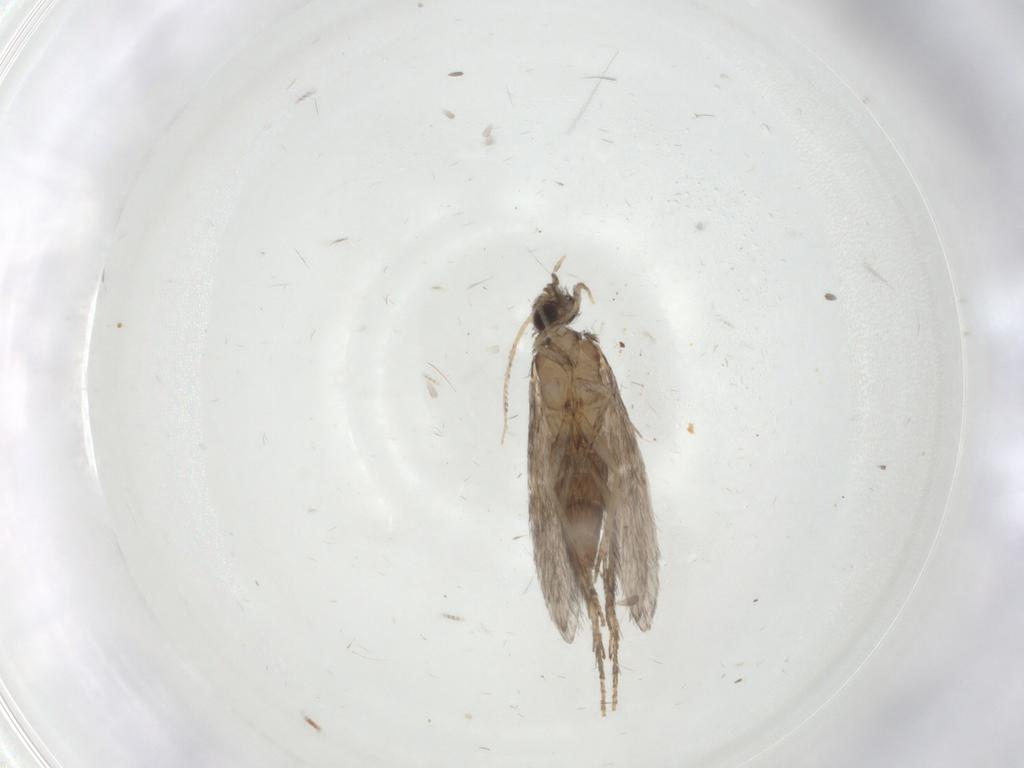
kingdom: Animalia
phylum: Arthropoda
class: Insecta
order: Trichoptera
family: Hydroptilidae
